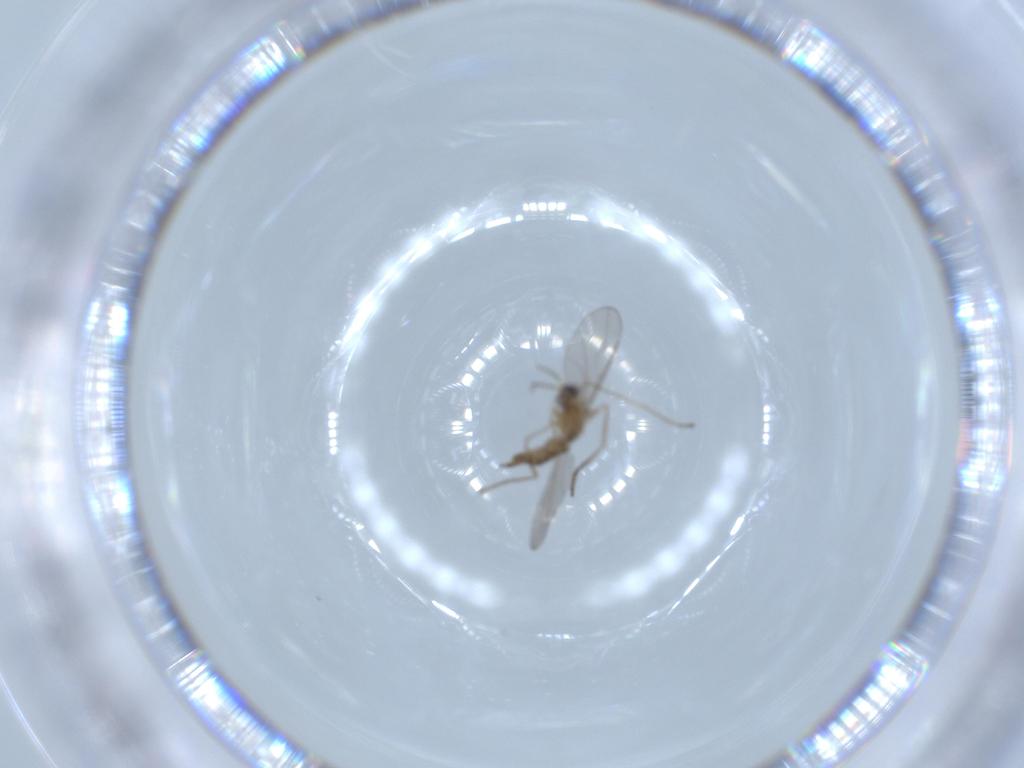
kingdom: Animalia
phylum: Arthropoda
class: Insecta
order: Diptera
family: Cecidomyiidae
